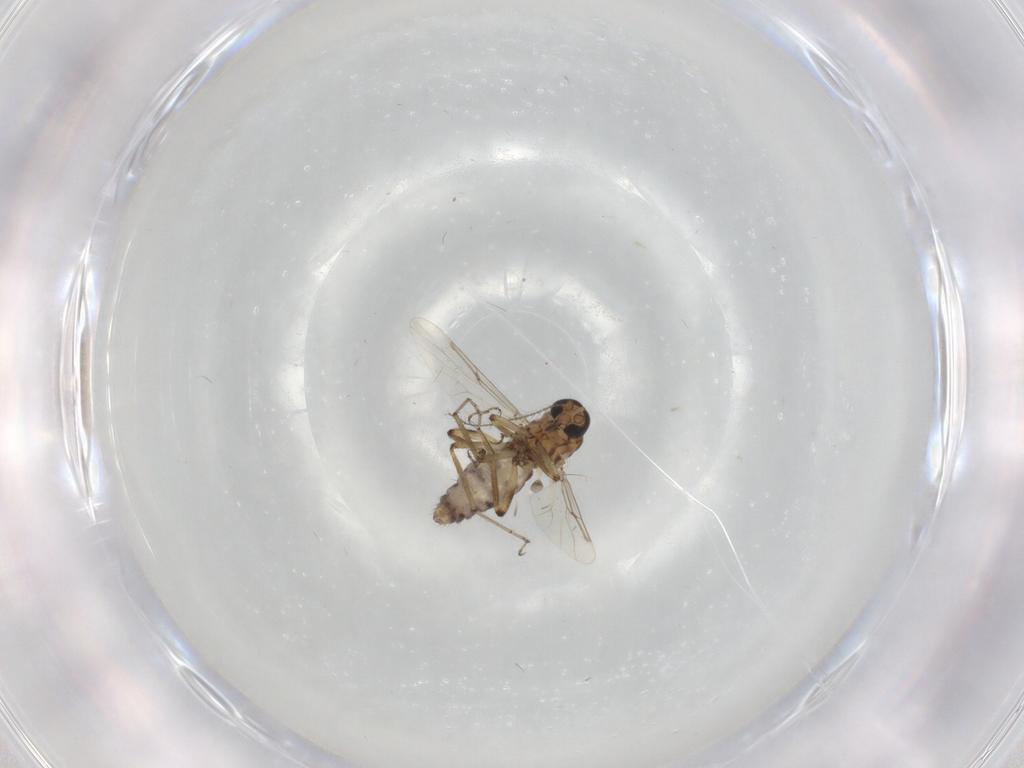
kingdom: Animalia
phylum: Arthropoda
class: Insecta
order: Diptera
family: Ceratopogonidae
